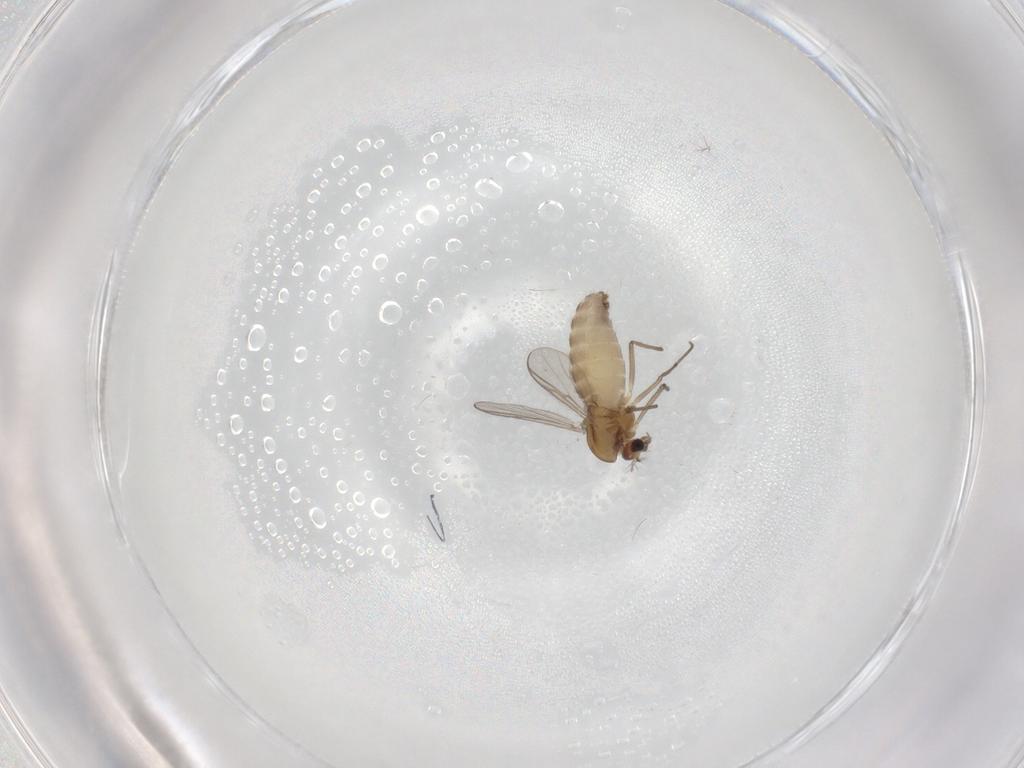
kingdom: Animalia
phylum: Arthropoda
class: Insecta
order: Diptera
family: Chironomidae
